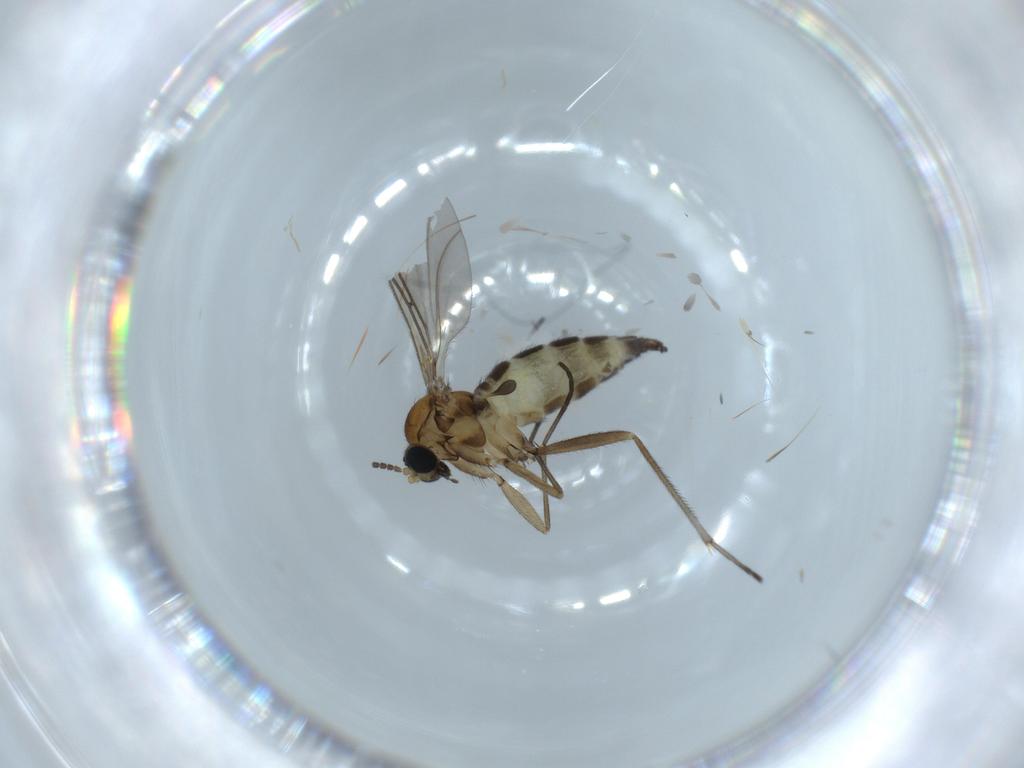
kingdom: Animalia
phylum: Arthropoda
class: Insecta
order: Diptera
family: Sciaridae
